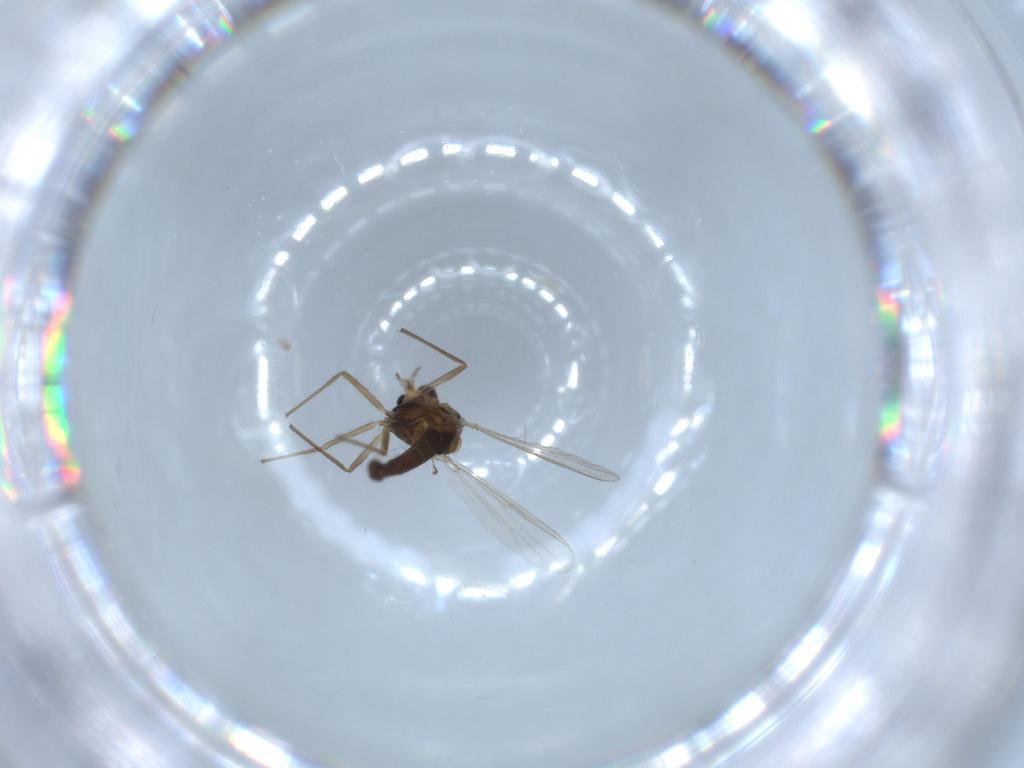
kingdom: Animalia
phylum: Arthropoda
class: Insecta
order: Diptera
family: Chironomidae
